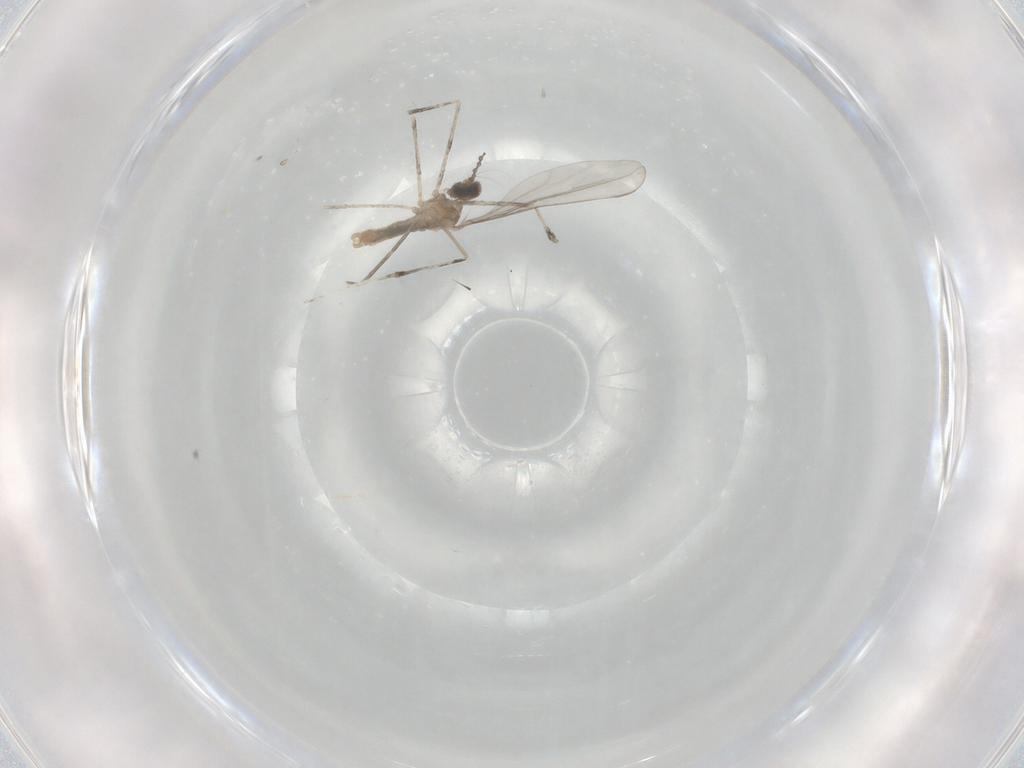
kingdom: Animalia
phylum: Arthropoda
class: Insecta
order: Diptera
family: Cecidomyiidae
